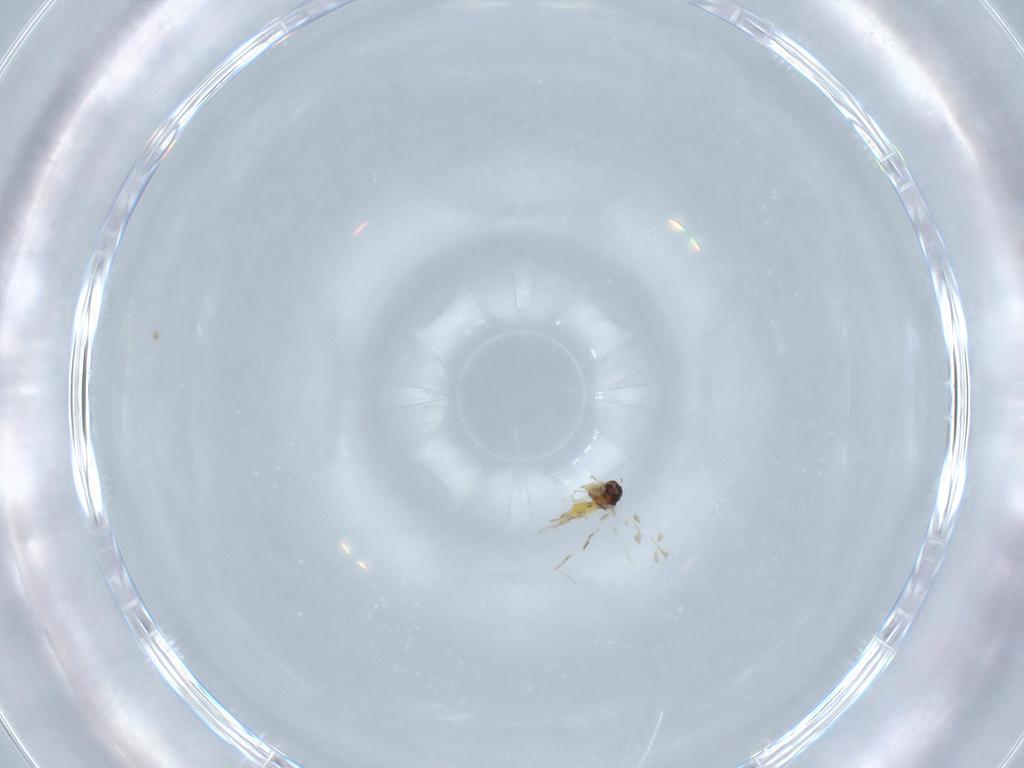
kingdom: Animalia
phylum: Arthropoda
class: Insecta
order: Hemiptera
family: Aleyrodidae
